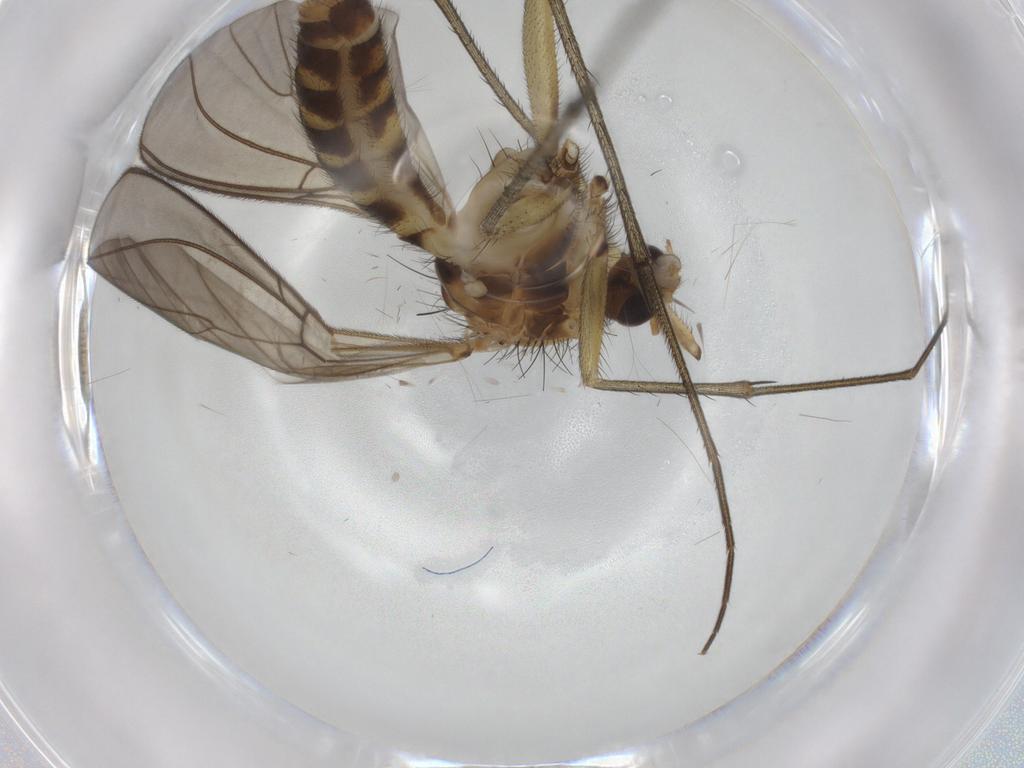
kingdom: Animalia
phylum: Arthropoda
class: Insecta
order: Diptera
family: Mycetophilidae
